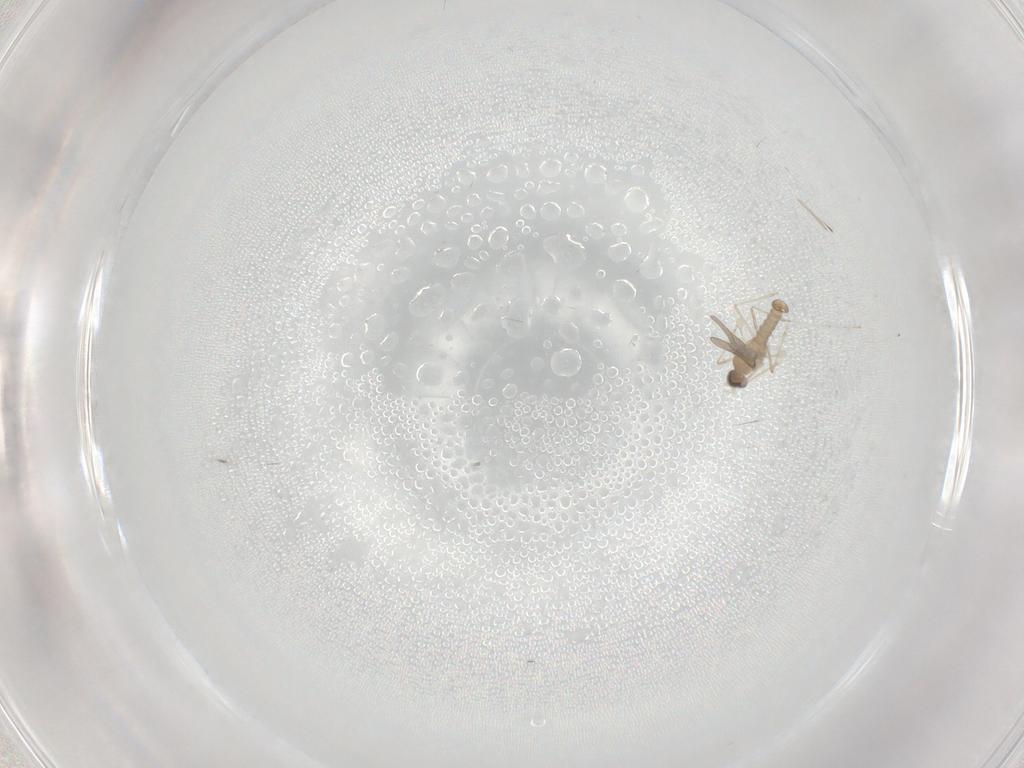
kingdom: Animalia
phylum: Arthropoda
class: Insecta
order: Diptera
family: Cecidomyiidae
